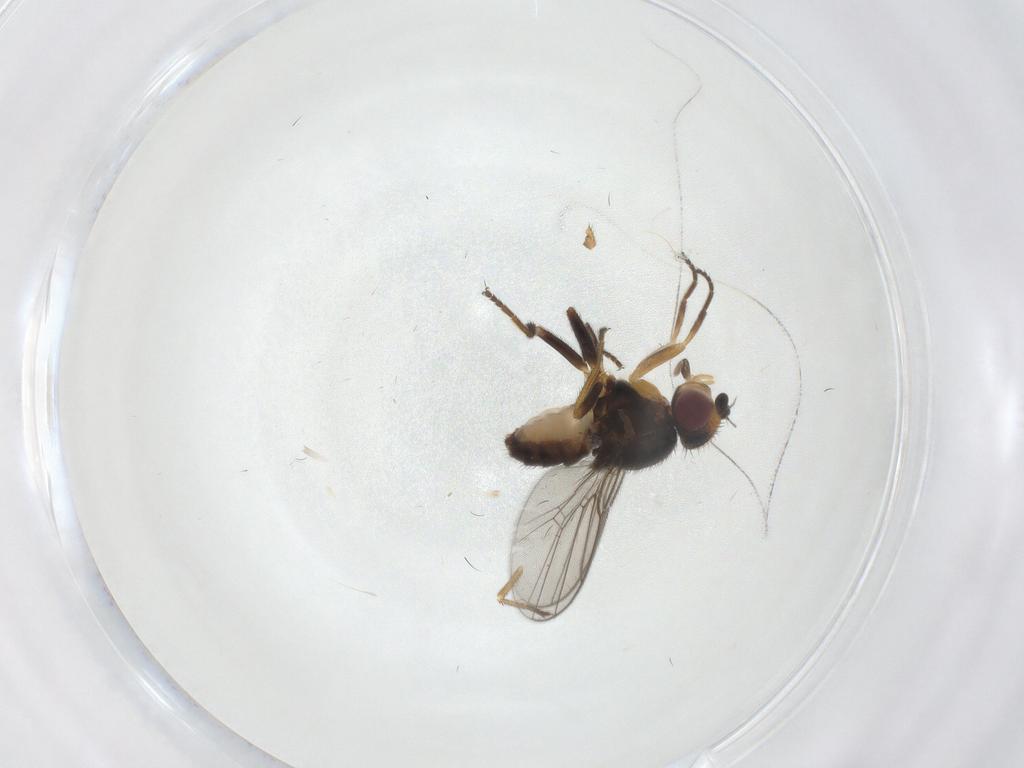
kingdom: Animalia
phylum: Arthropoda
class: Insecta
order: Diptera
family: Chloropidae
